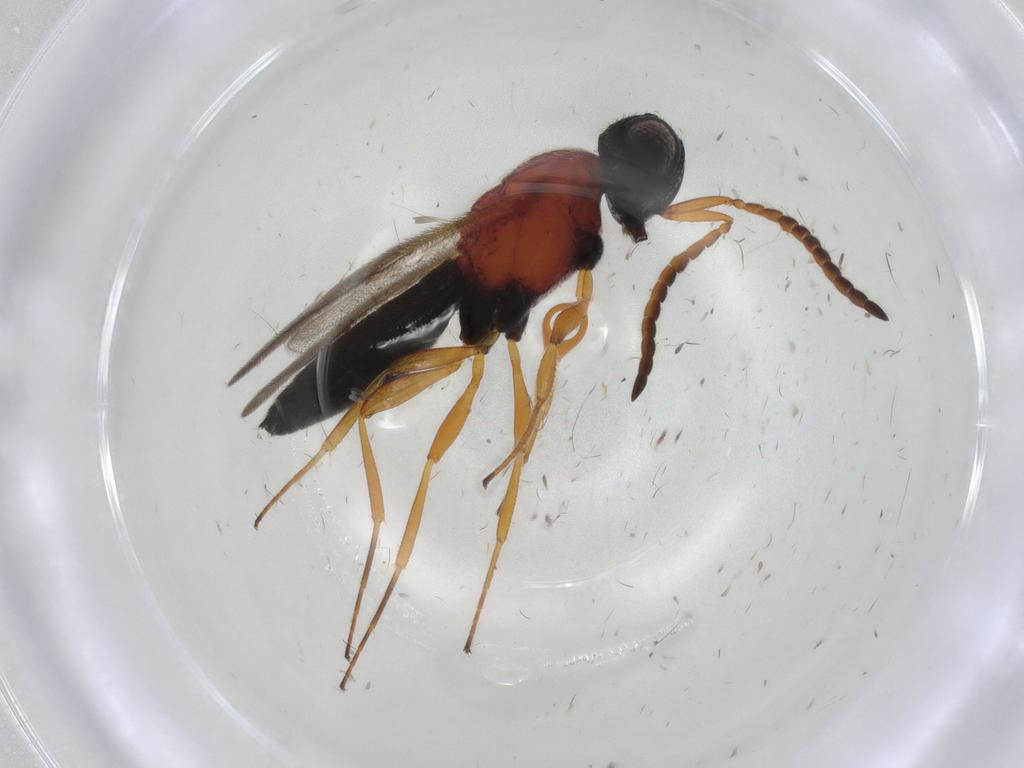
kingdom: Animalia
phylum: Arthropoda
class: Insecta
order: Hymenoptera
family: Scelionidae
